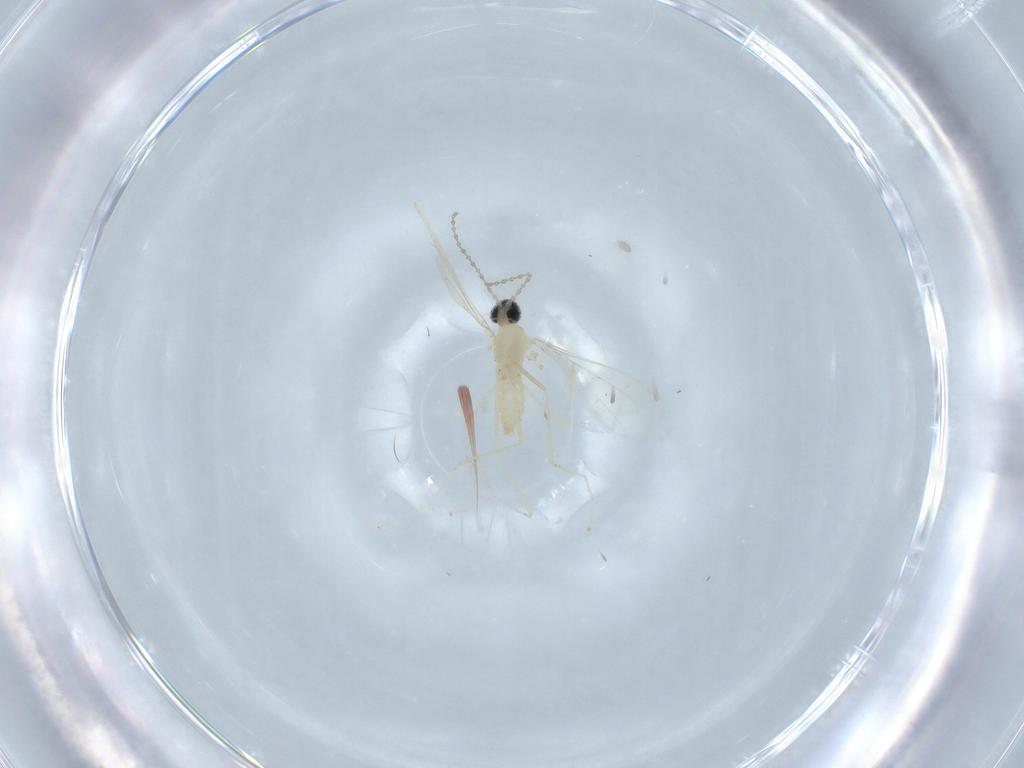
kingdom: Animalia
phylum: Arthropoda
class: Insecta
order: Diptera
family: Cecidomyiidae
